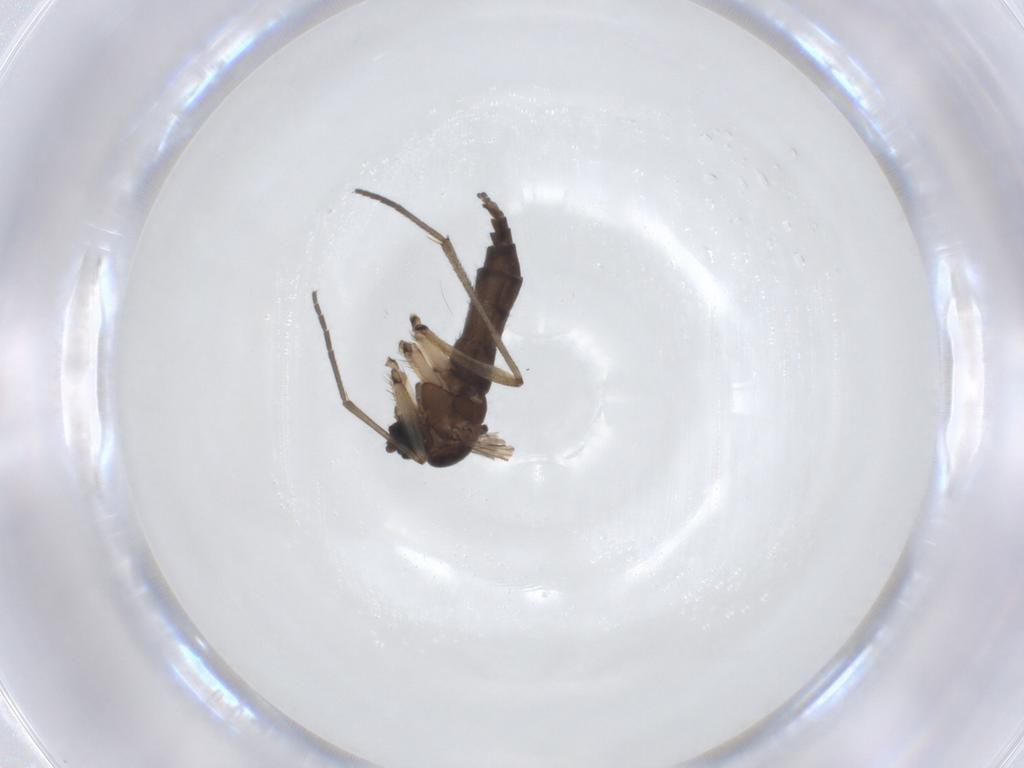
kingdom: Animalia
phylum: Arthropoda
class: Insecta
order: Diptera
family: Sciaridae
